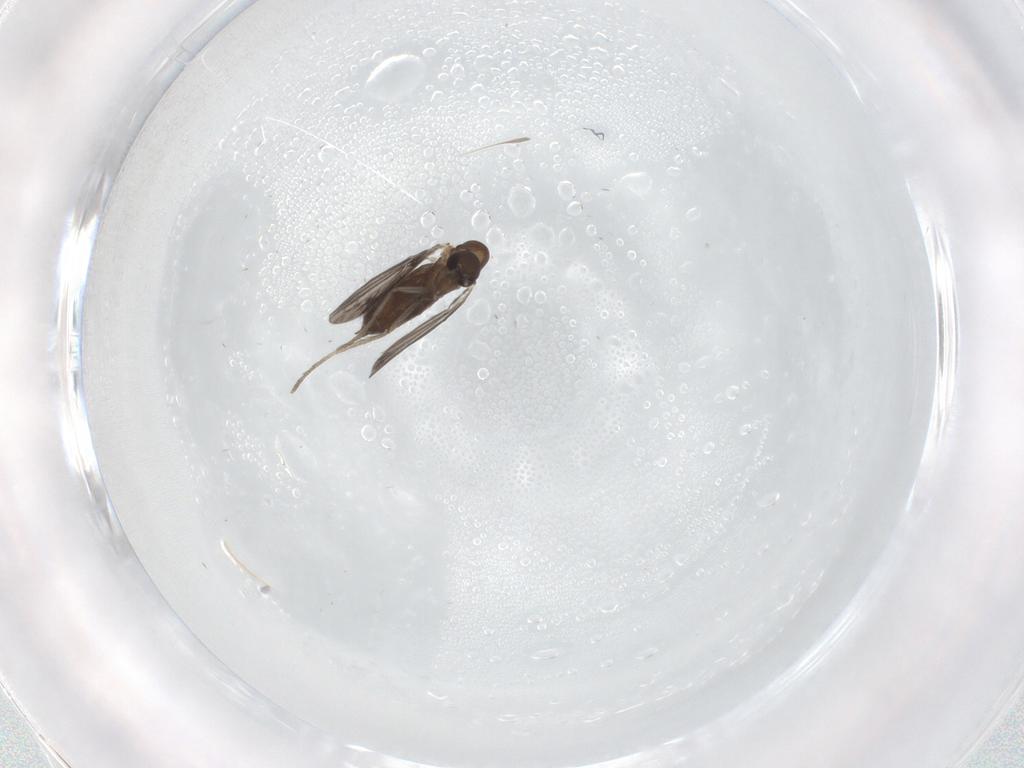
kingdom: Animalia
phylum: Arthropoda
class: Insecta
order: Diptera
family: Cecidomyiidae
